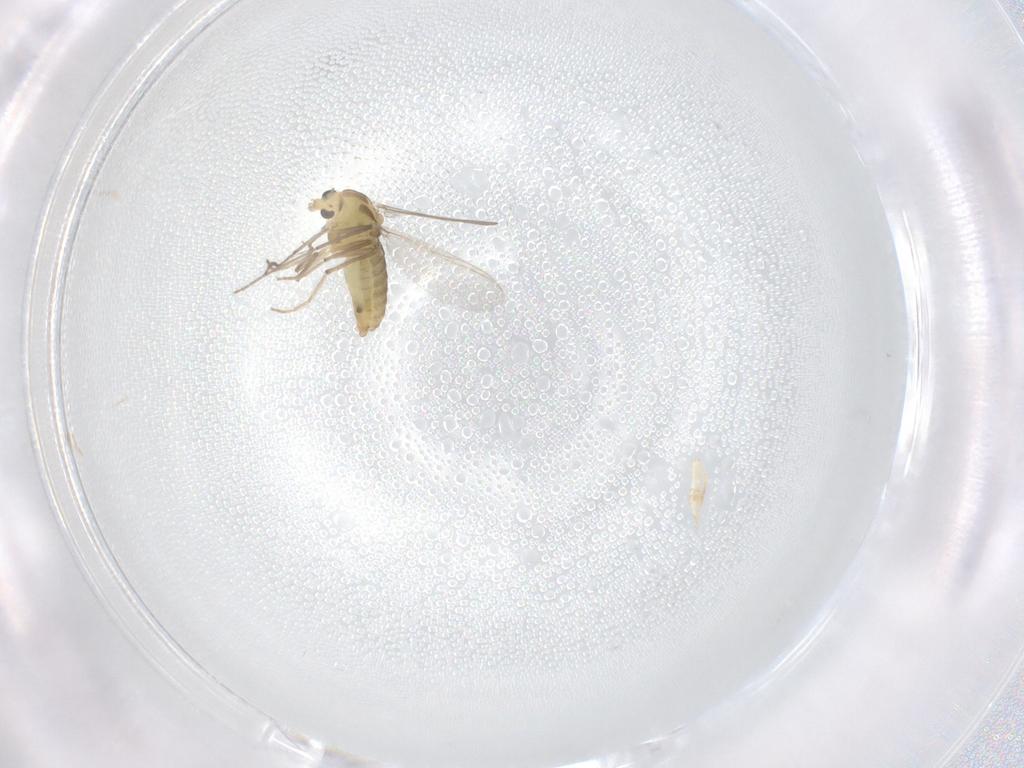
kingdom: Animalia
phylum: Arthropoda
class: Insecta
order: Diptera
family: Chironomidae
